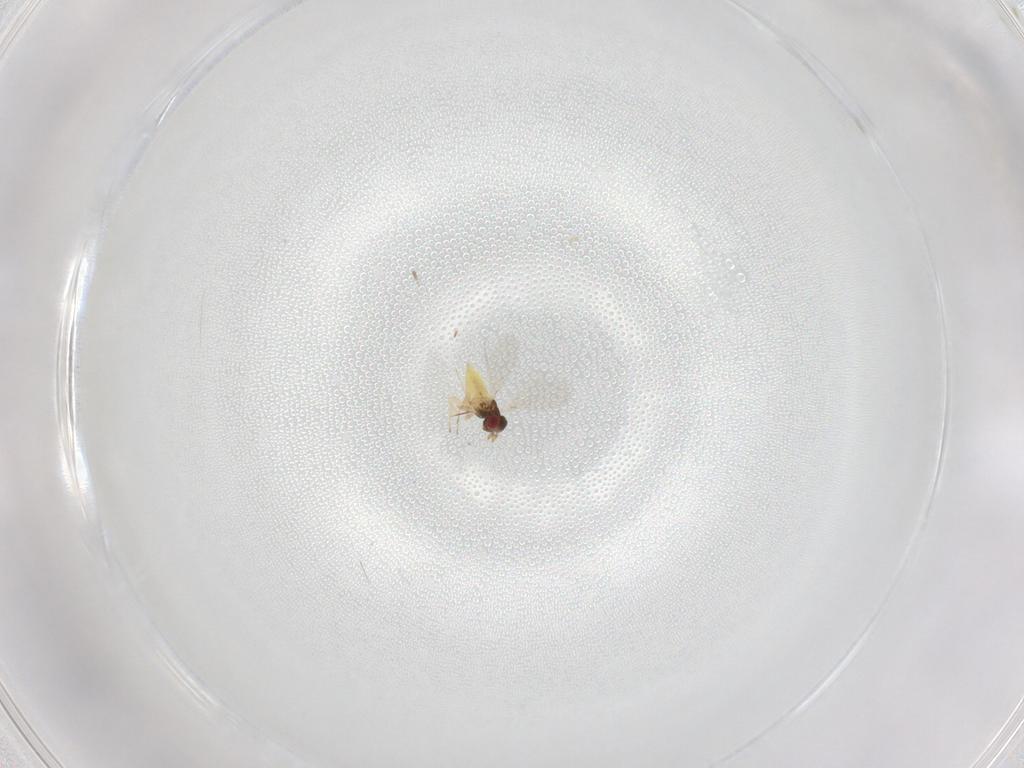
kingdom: Animalia
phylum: Arthropoda
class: Insecta
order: Hymenoptera
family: Trichogrammatidae
